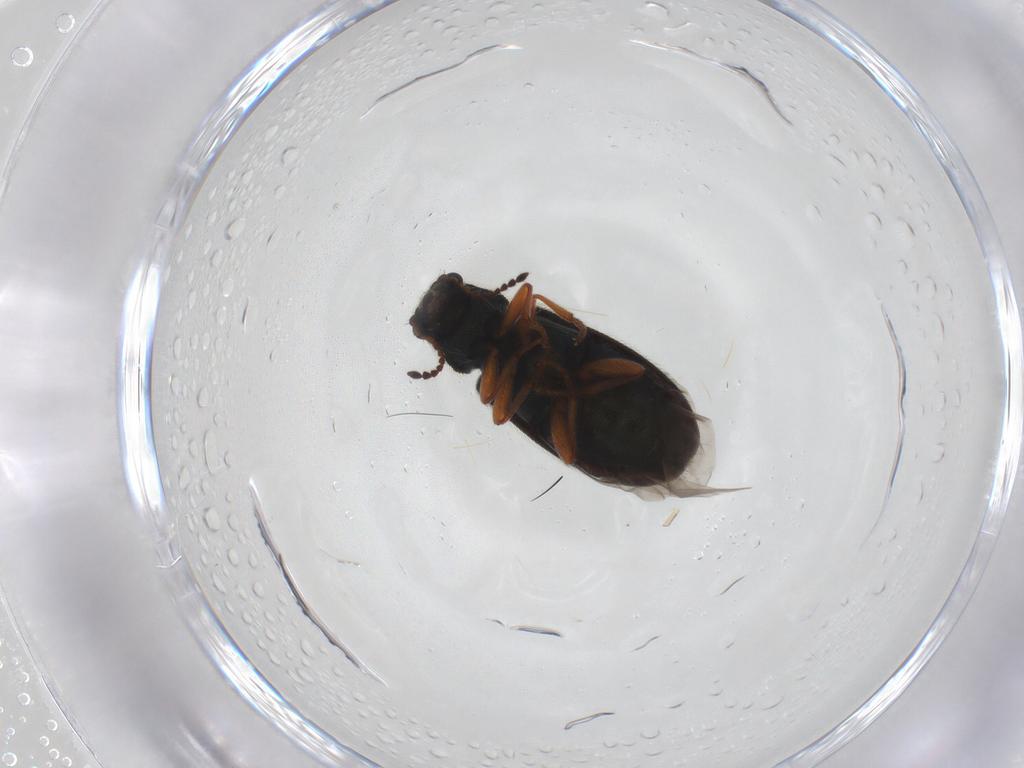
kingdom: Animalia
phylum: Arthropoda
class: Insecta
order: Coleoptera
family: Melyridae
